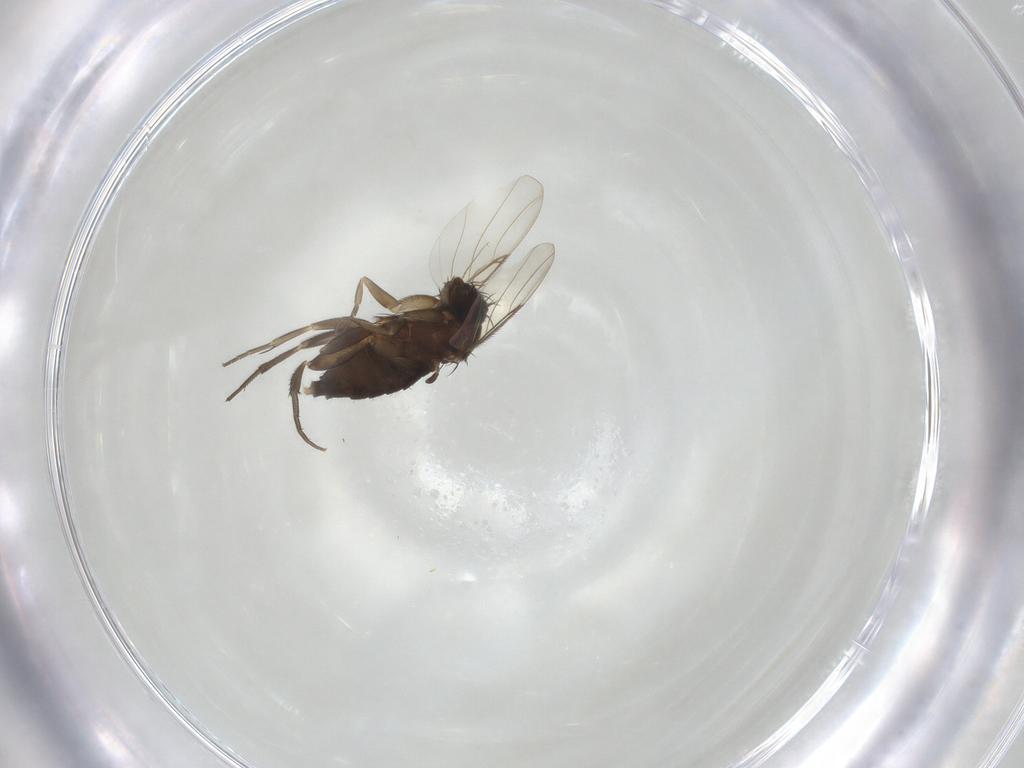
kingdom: Animalia
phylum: Arthropoda
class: Insecta
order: Diptera
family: Phoridae
